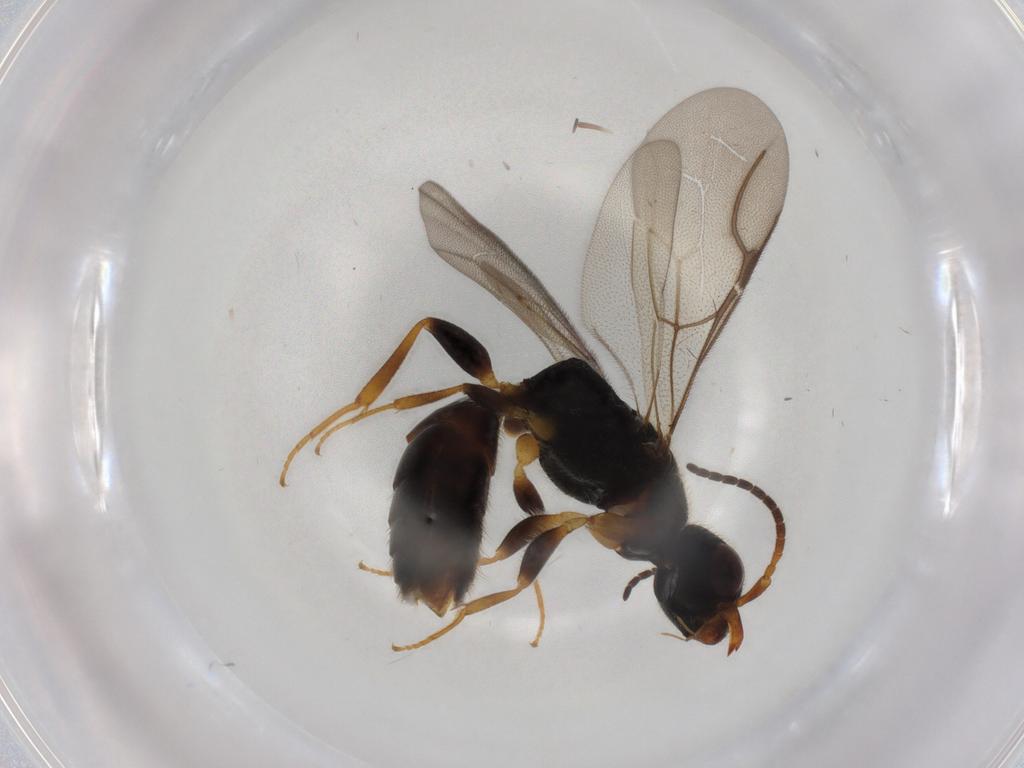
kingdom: Animalia
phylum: Arthropoda
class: Insecta
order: Hymenoptera
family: Bethylidae
